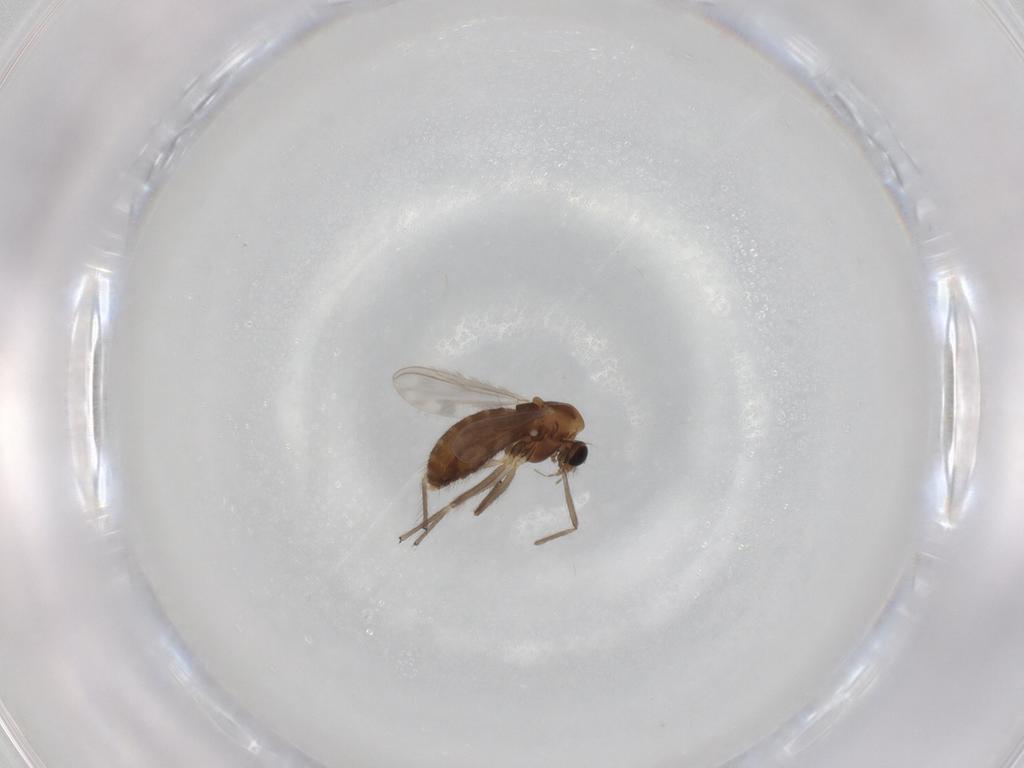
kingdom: Animalia
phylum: Arthropoda
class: Insecta
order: Diptera
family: Chironomidae
